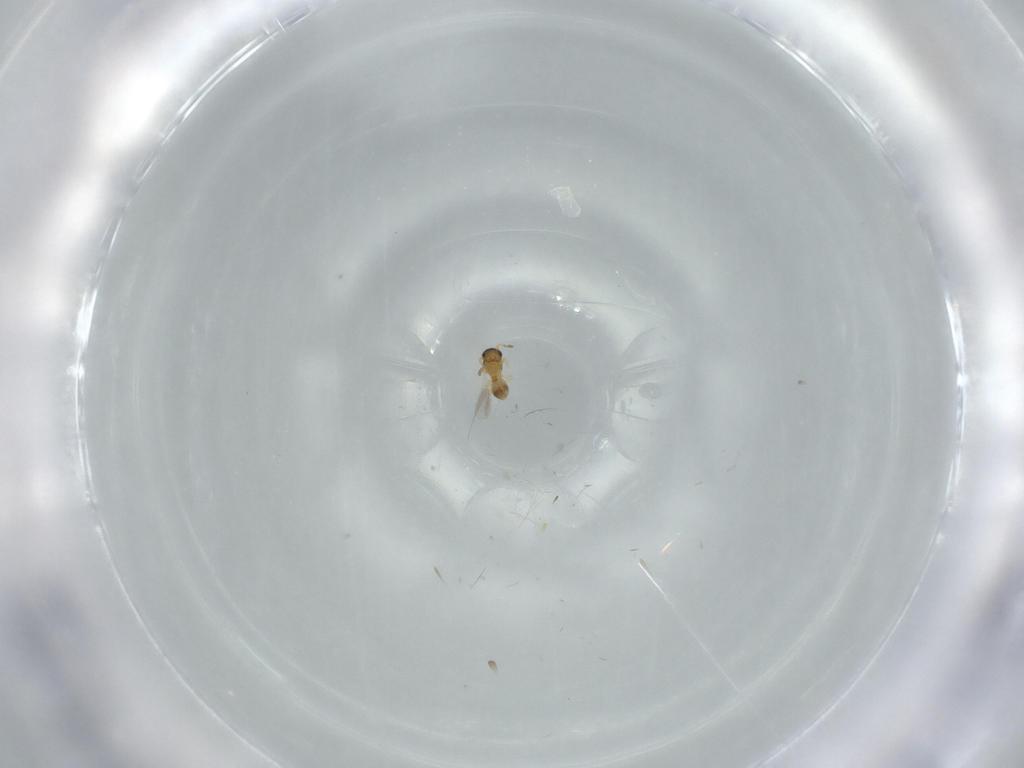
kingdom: Animalia
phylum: Arthropoda
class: Insecta
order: Hymenoptera
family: Platygastridae
